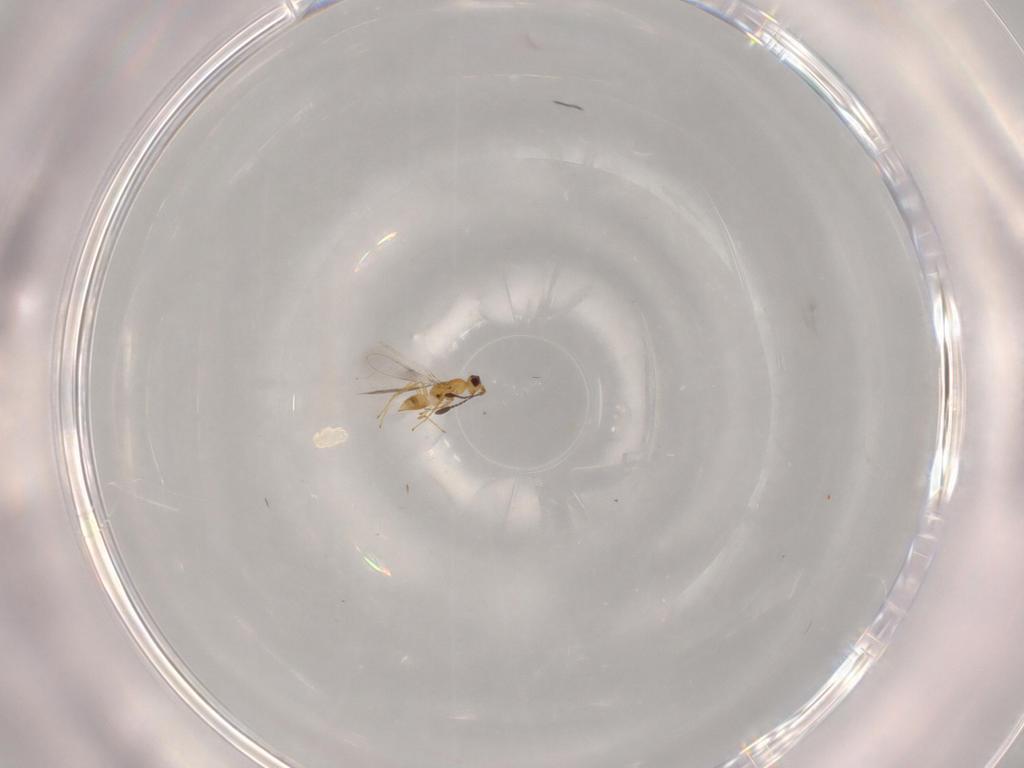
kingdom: Animalia
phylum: Arthropoda
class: Insecta
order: Hymenoptera
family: Mymaridae
